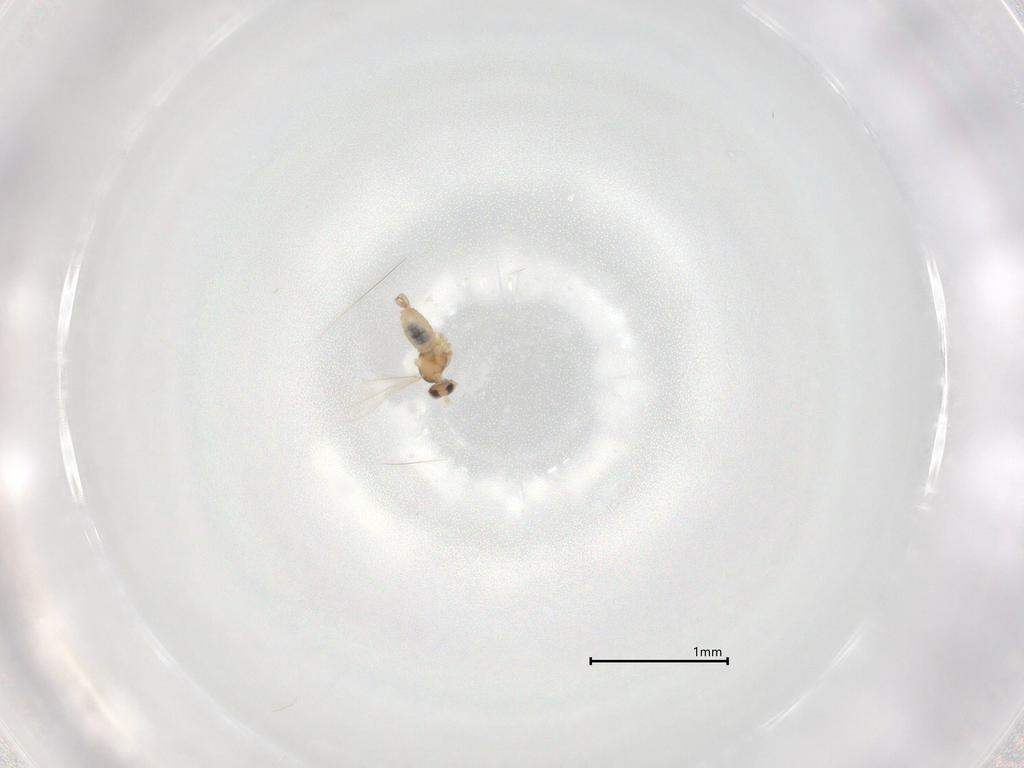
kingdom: Animalia
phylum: Arthropoda
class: Insecta
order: Diptera
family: Cecidomyiidae
